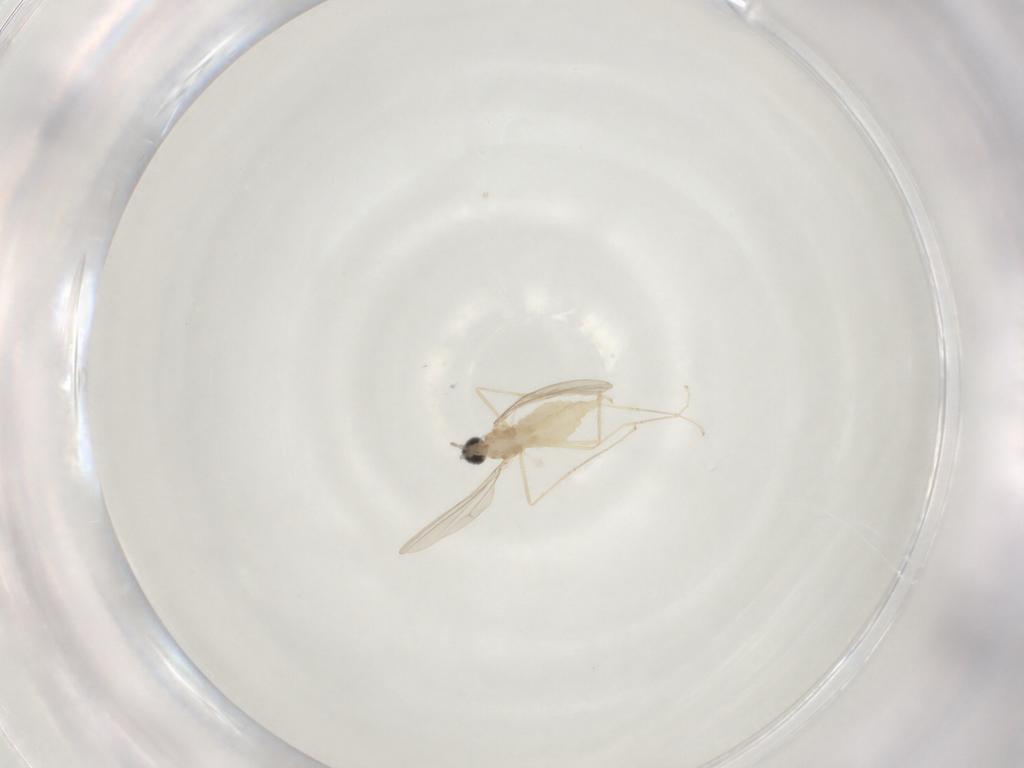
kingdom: Animalia
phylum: Arthropoda
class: Insecta
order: Diptera
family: Cecidomyiidae
